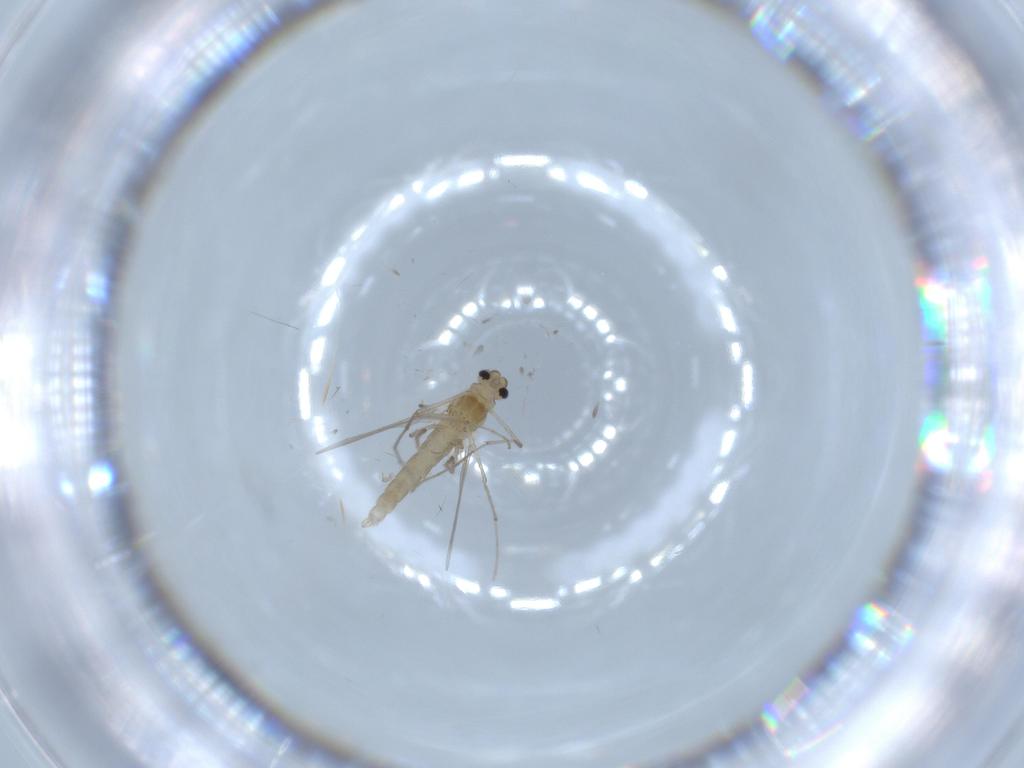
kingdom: Animalia
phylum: Arthropoda
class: Insecta
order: Diptera
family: Chironomidae
